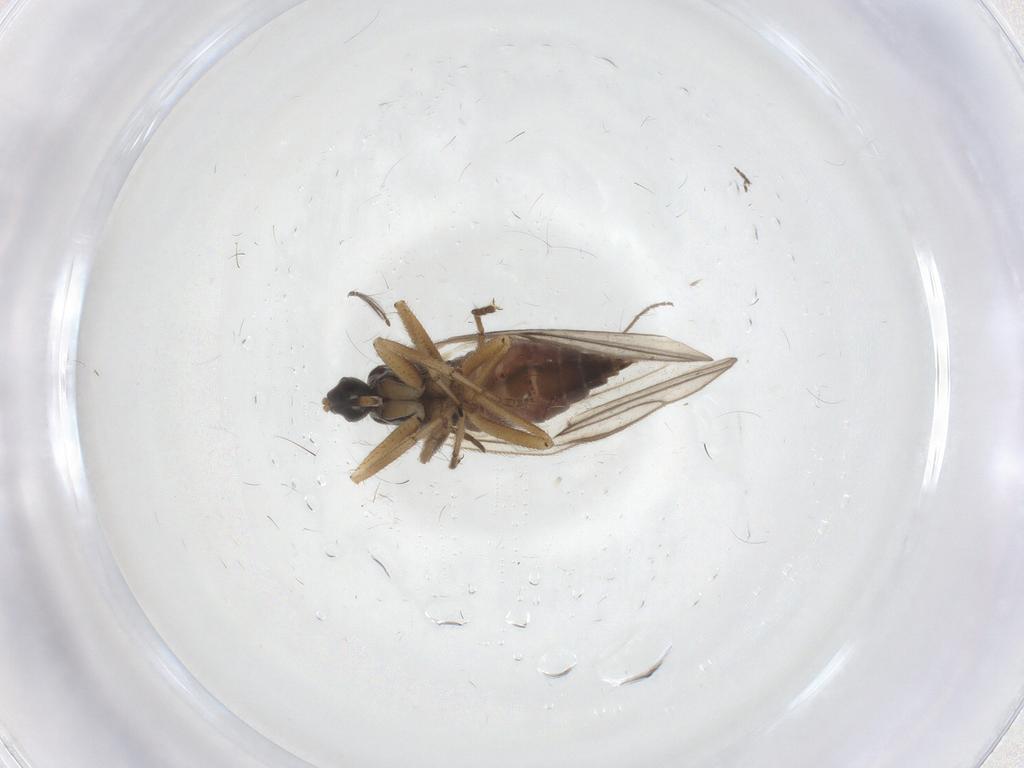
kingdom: Animalia
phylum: Arthropoda
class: Insecta
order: Diptera
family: Hybotidae
